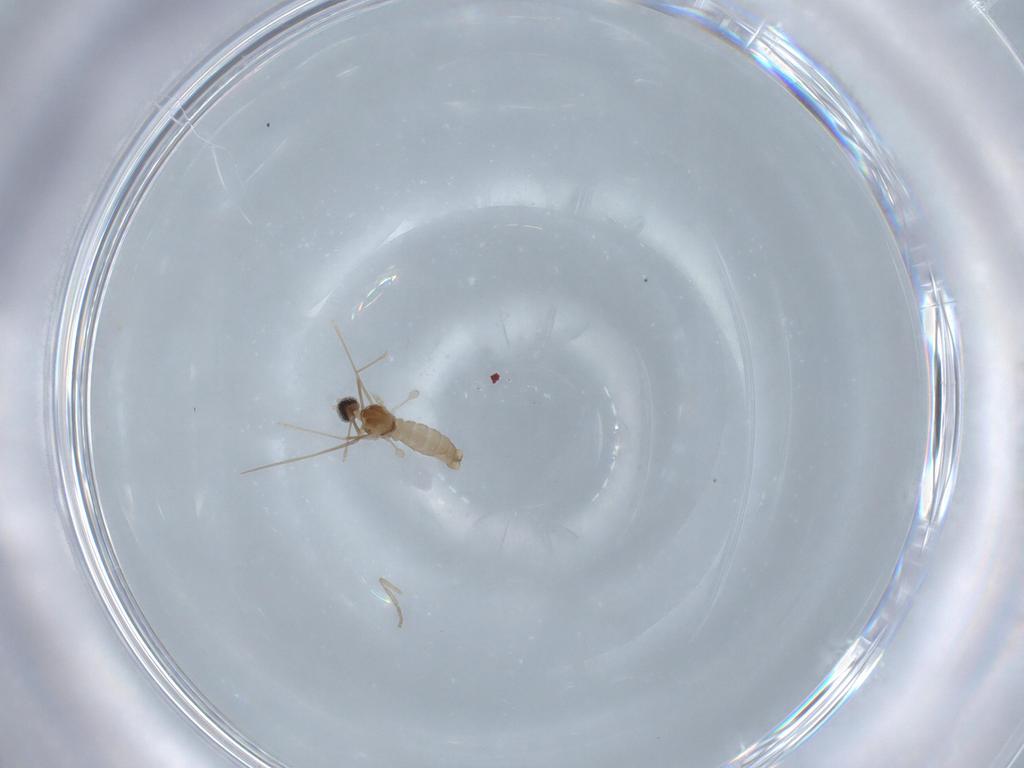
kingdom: Animalia
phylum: Arthropoda
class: Insecta
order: Diptera
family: Cecidomyiidae
